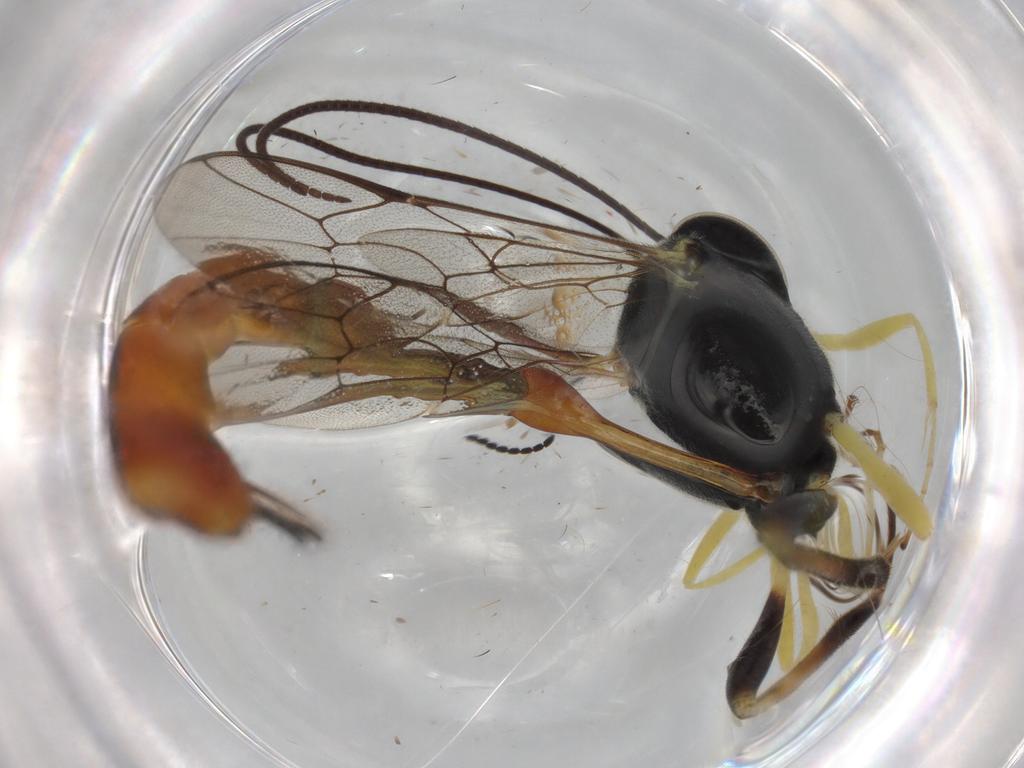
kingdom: Animalia
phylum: Arthropoda
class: Insecta
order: Hymenoptera
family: Ichneumonidae
